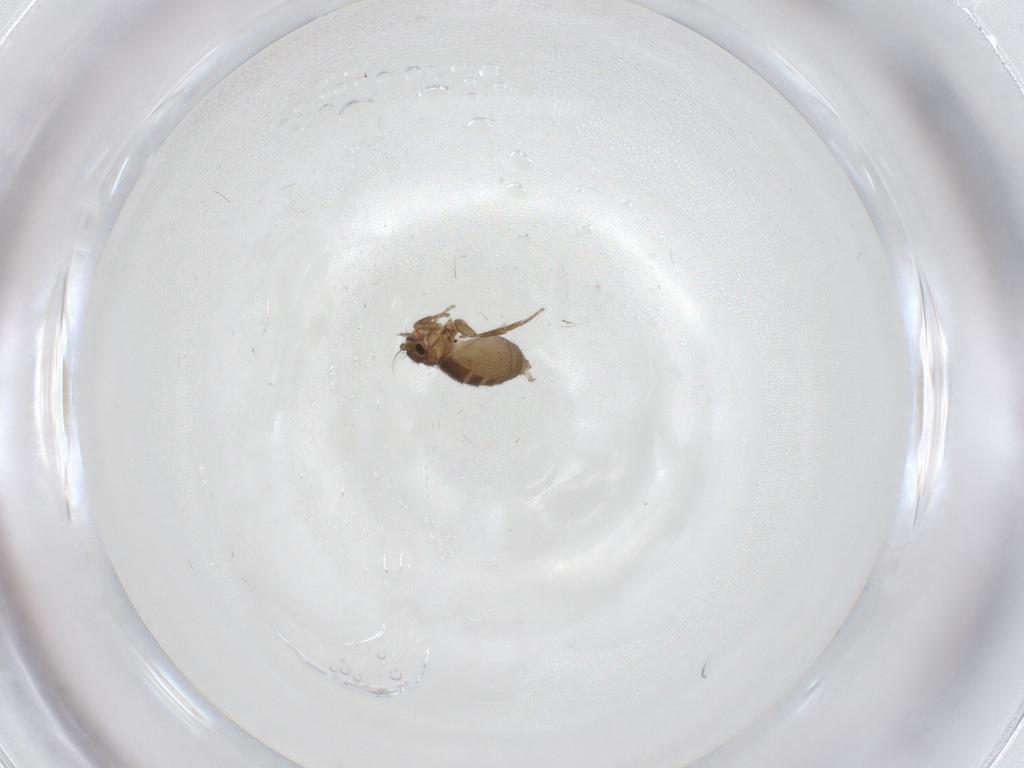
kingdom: Animalia
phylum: Arthropoda
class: Insecta
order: Diptera
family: Phoridae
